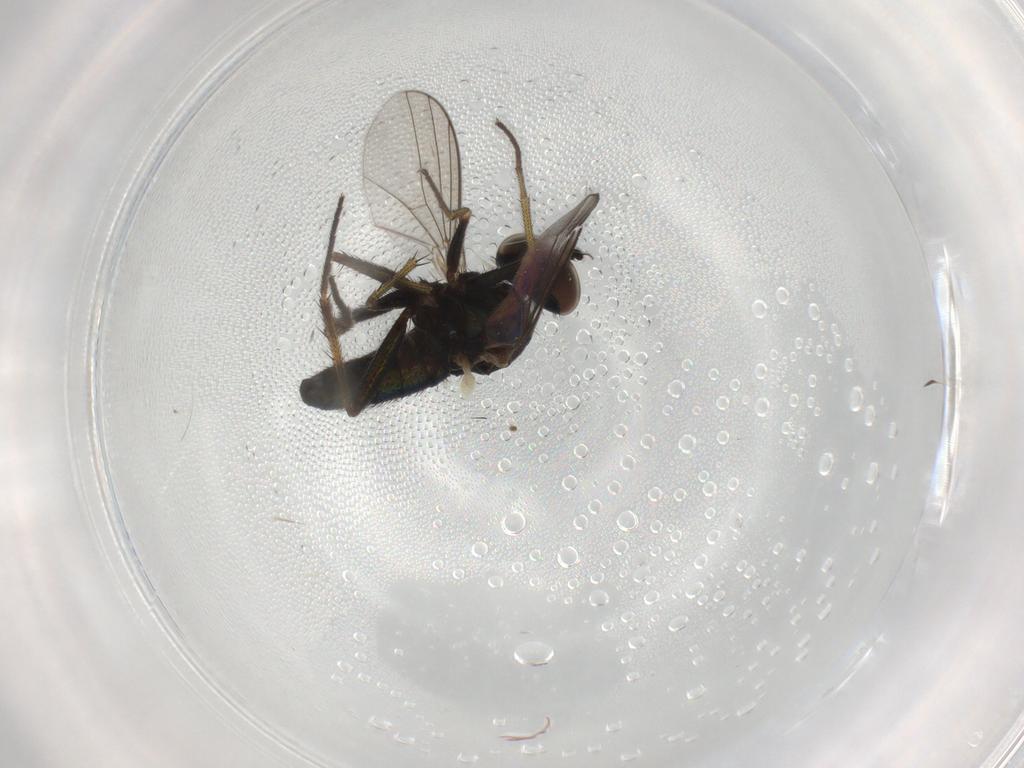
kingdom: Animalia
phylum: Arthropoda
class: Insecta
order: Diptera
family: Dolichopodidae
